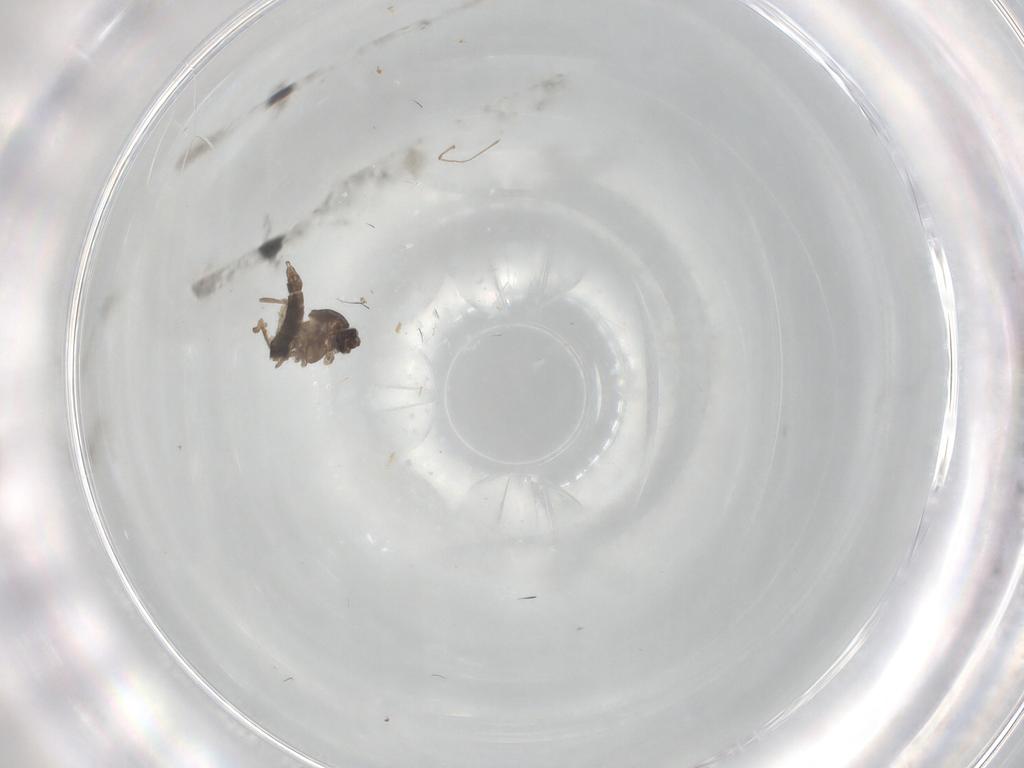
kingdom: Animalia
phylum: Arthropoda
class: Insecta
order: Diptera
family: Chironomidae
